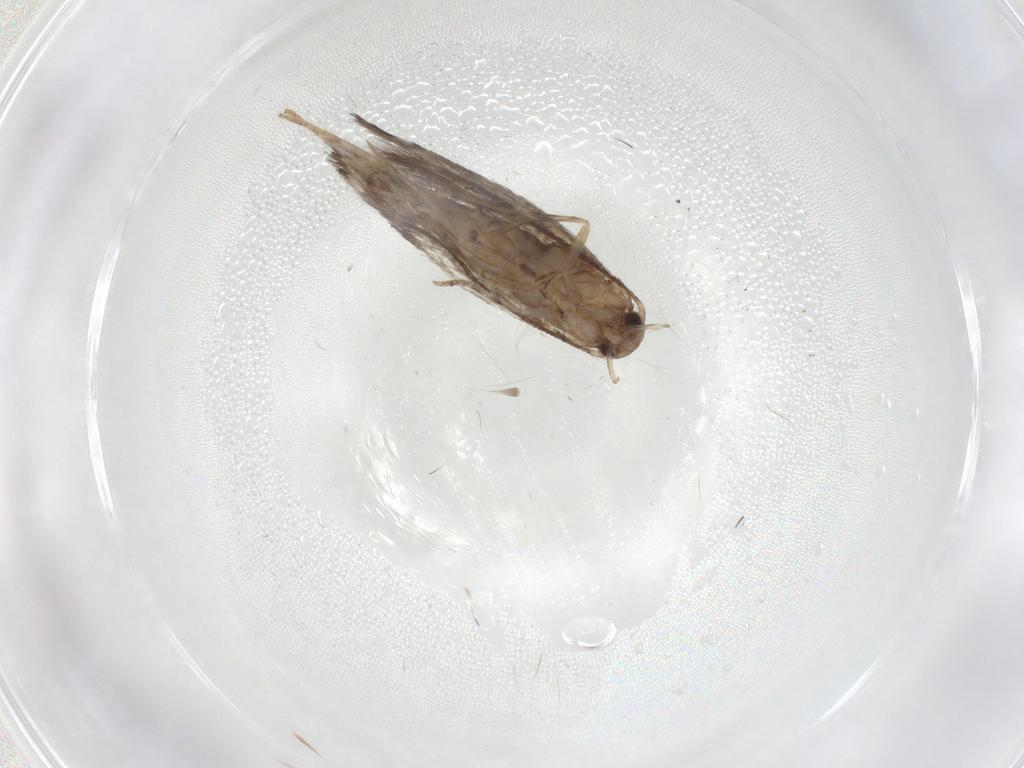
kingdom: Animalia
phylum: Arthropoda
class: Insecta
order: Lepidoptera
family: Elachistidae
